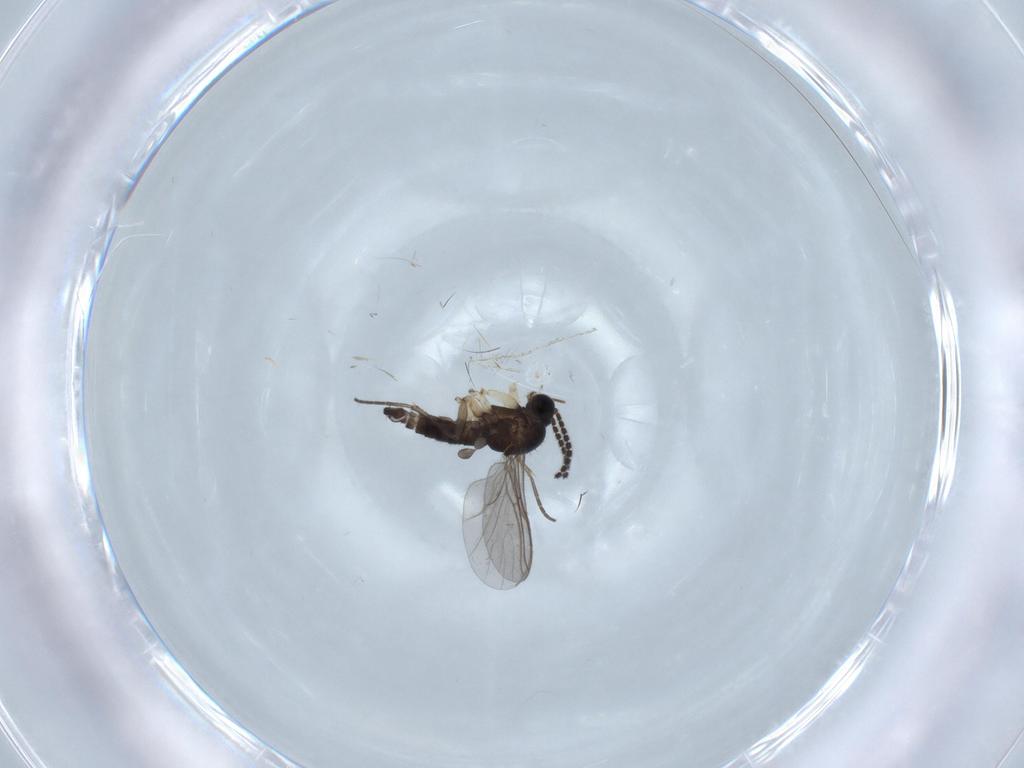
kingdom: Animalia
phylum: Arthropoda
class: Insecta
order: Diptera
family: Sciaridae
